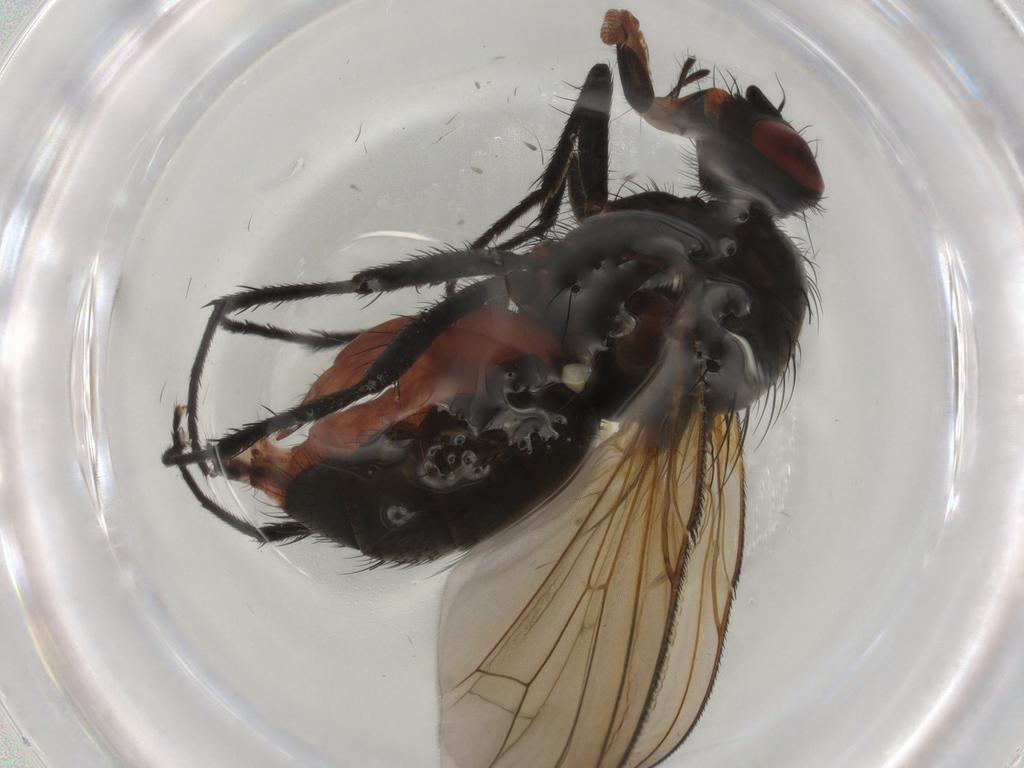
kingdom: Animalia
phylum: Arthropoda
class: Insecta
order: Diptera
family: Anthomyiidae
